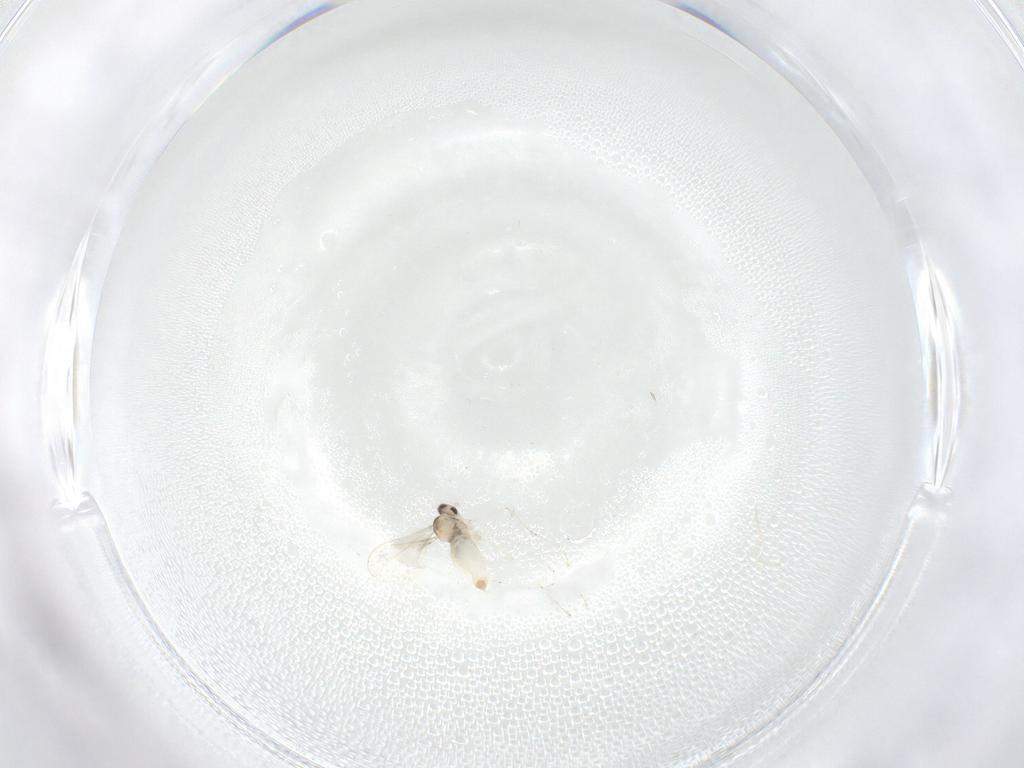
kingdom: Animalia
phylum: Arthropoda
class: Insecta
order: Diptera
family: Cecidomyiidae
